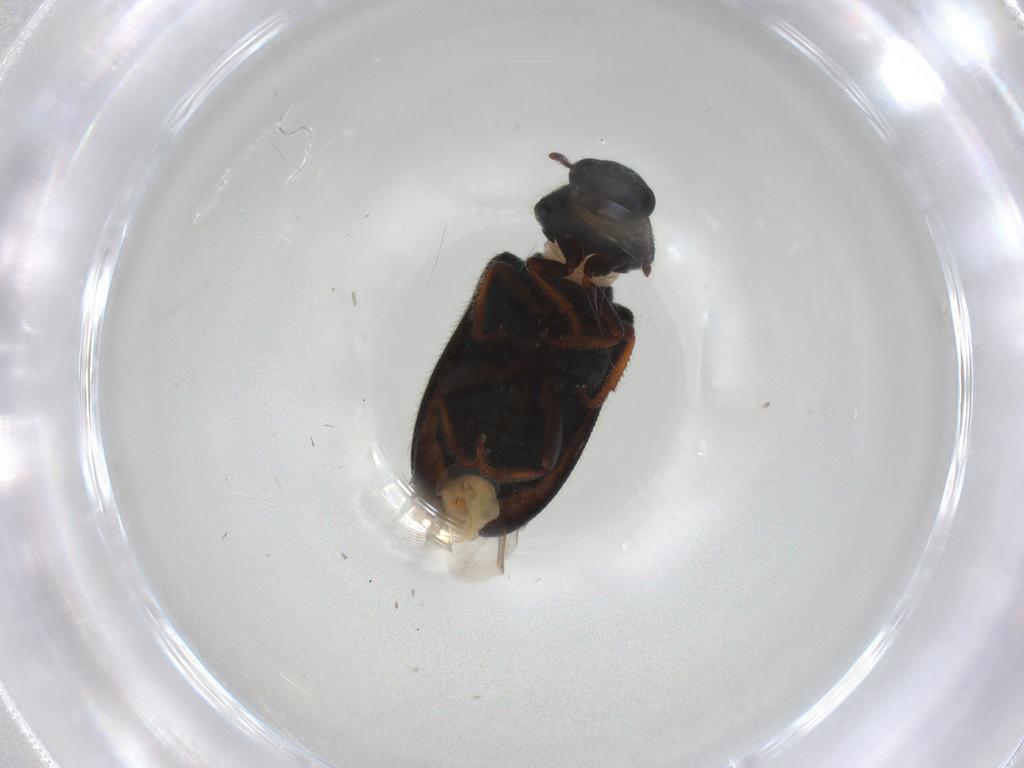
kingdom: Animalia
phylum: Arthropoda
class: Insecta
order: Coleoptera
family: Melyridae
